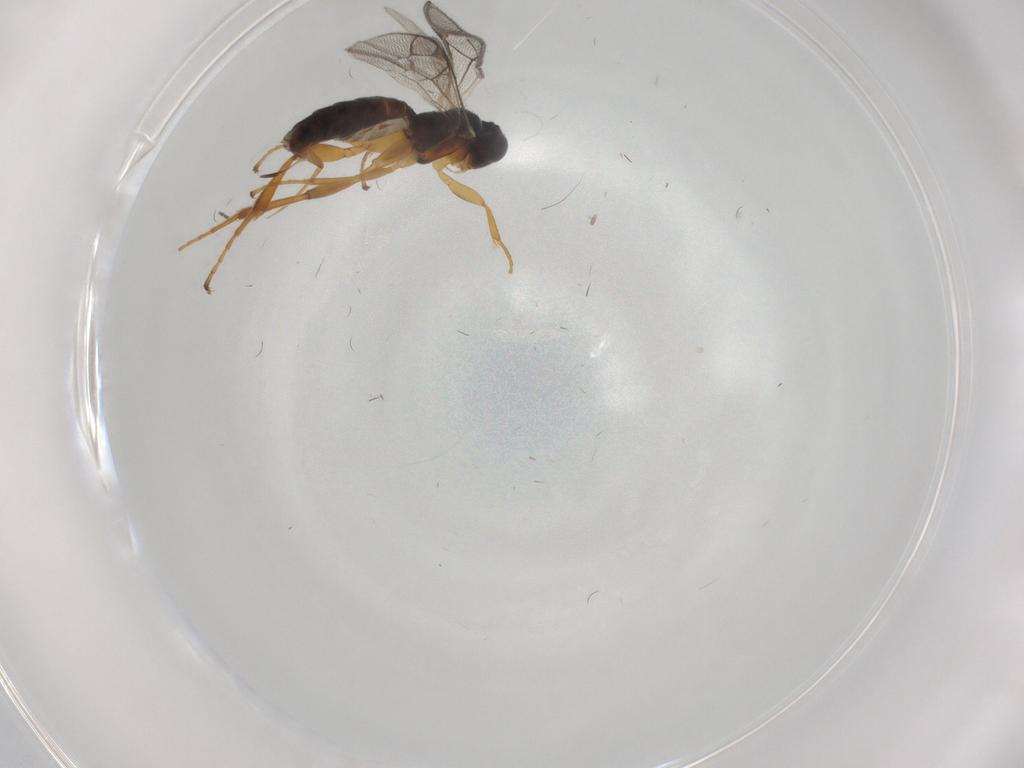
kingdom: Animalia
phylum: Arthropoda
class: Insecta
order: Hymenoptera
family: Ichneumonidae
